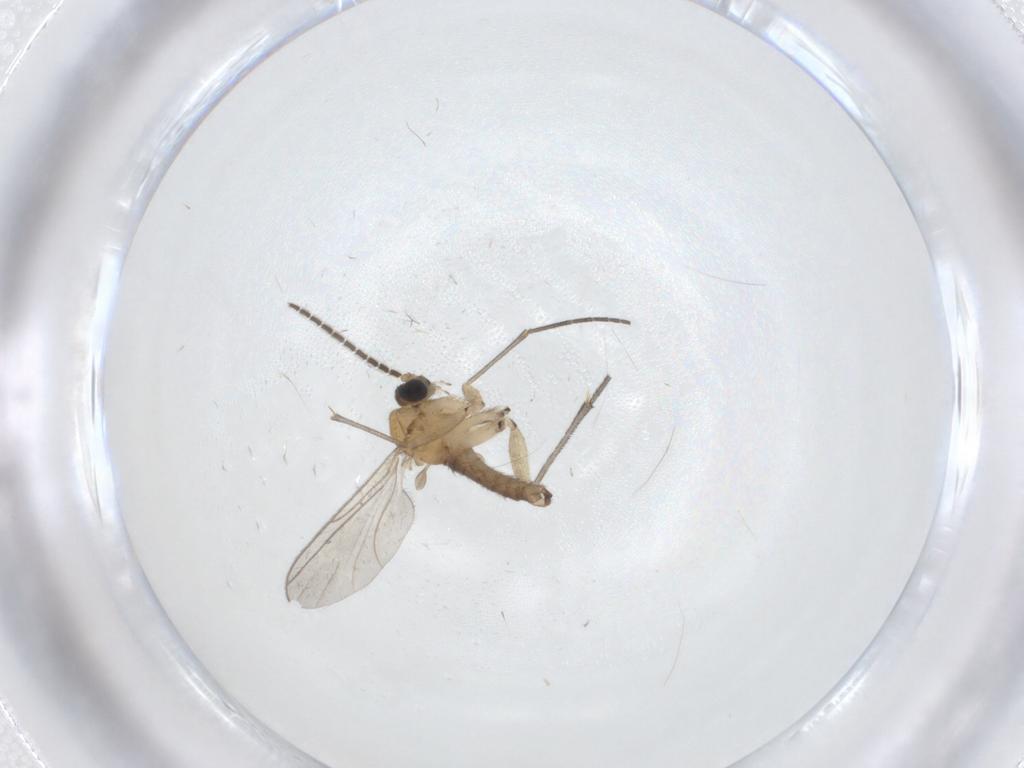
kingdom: Animalia
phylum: Arthropoda
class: Insecta
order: Diptera
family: Sciaridae
